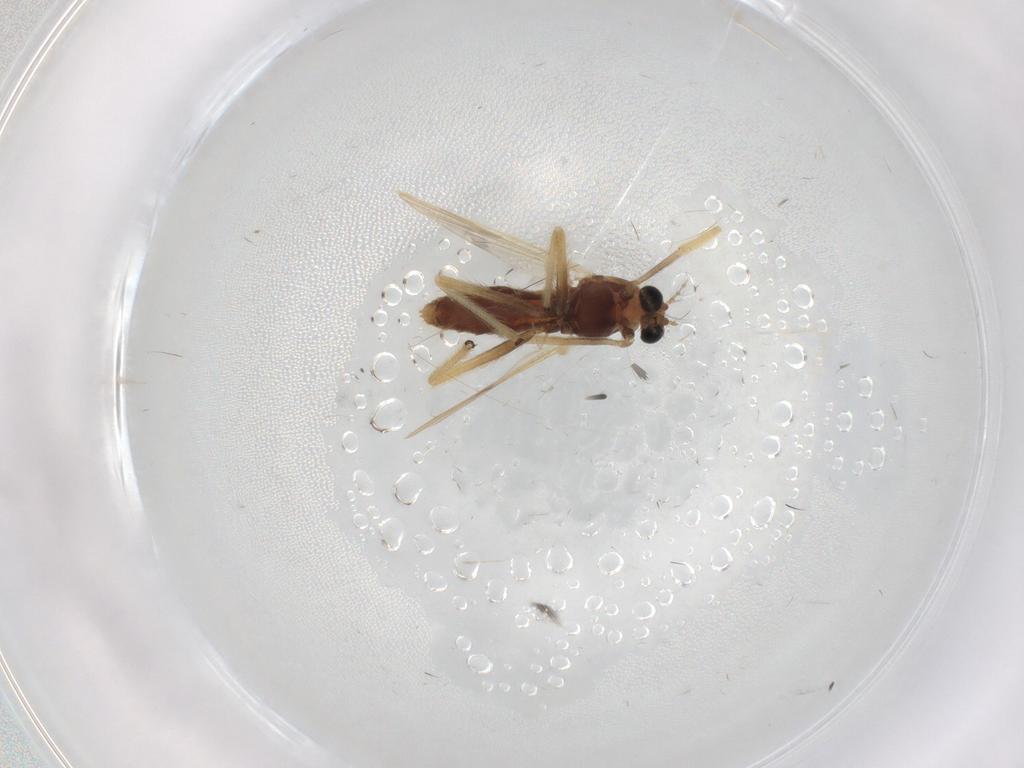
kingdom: Animalia
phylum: Arthropoda
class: Insecta
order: Diptera
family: Chironomidae
